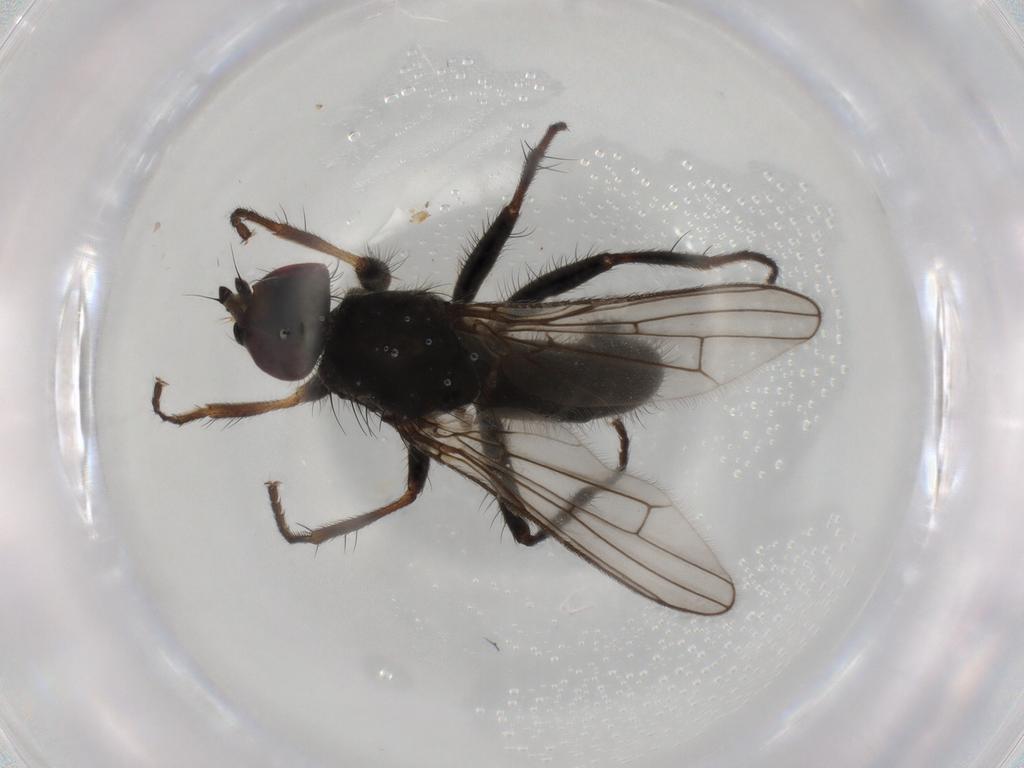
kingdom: Animalia
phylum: Arthropoda
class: Insecta
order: Diptera
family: Scathophagidae
